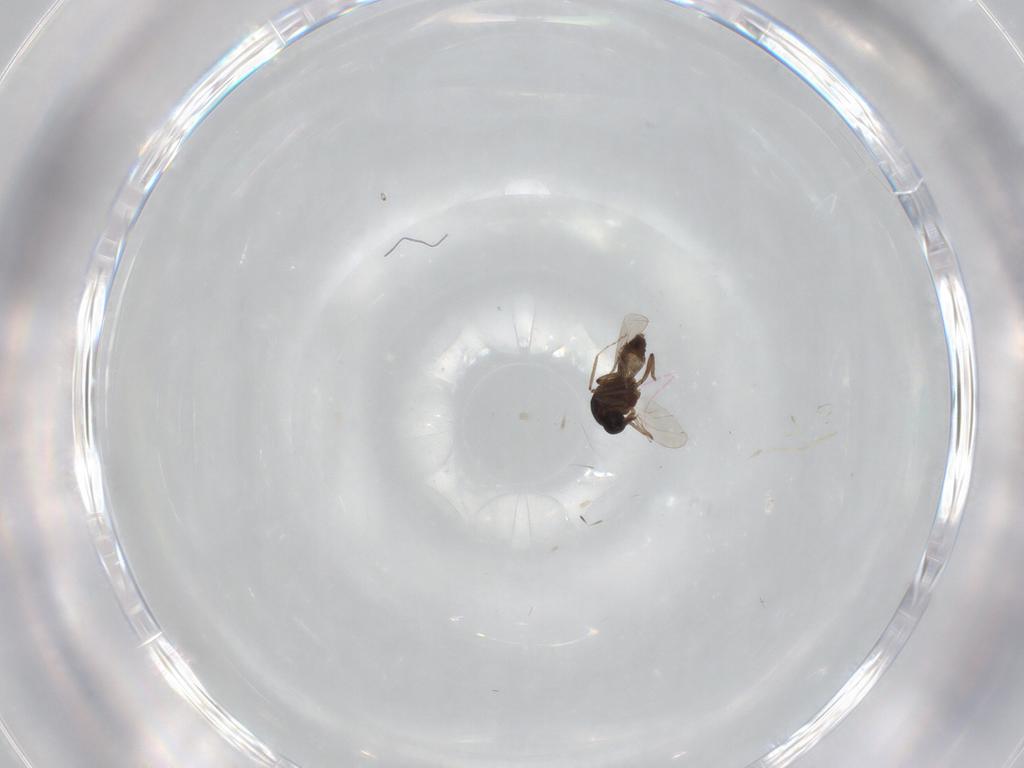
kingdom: Animalia
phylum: Arthropoda
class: Insecta
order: Diptera
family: Ceratopogonidae
